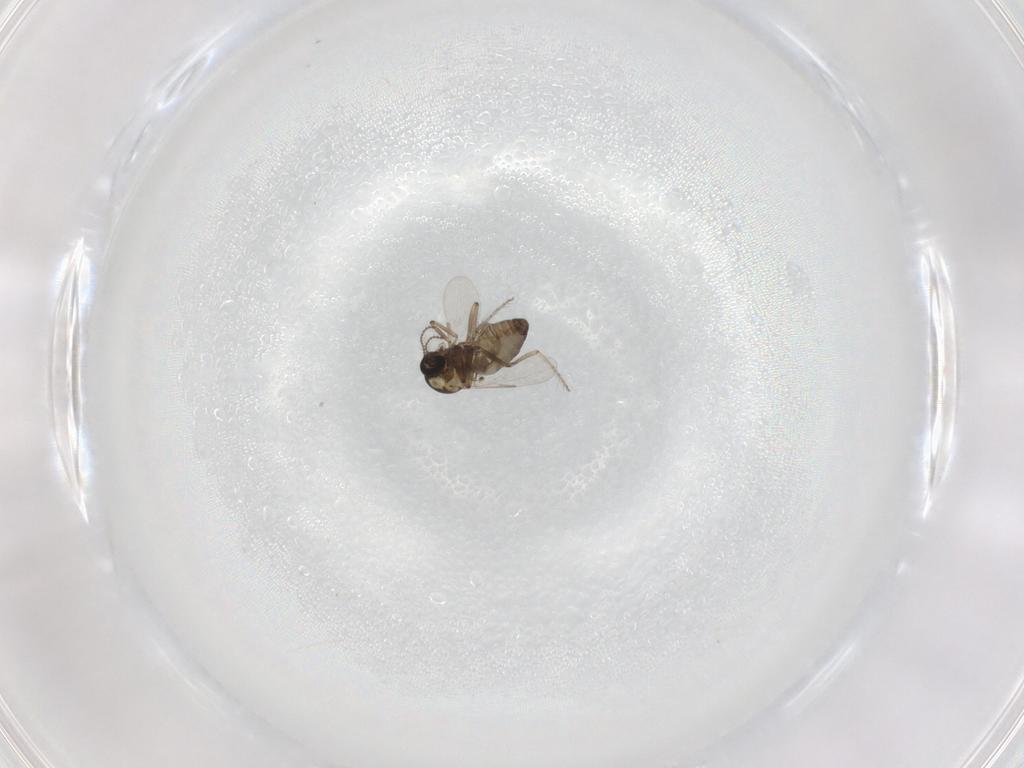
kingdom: Animalia
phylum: Arthropoda
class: Insecta
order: Diptera
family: Ceratopogonidae
